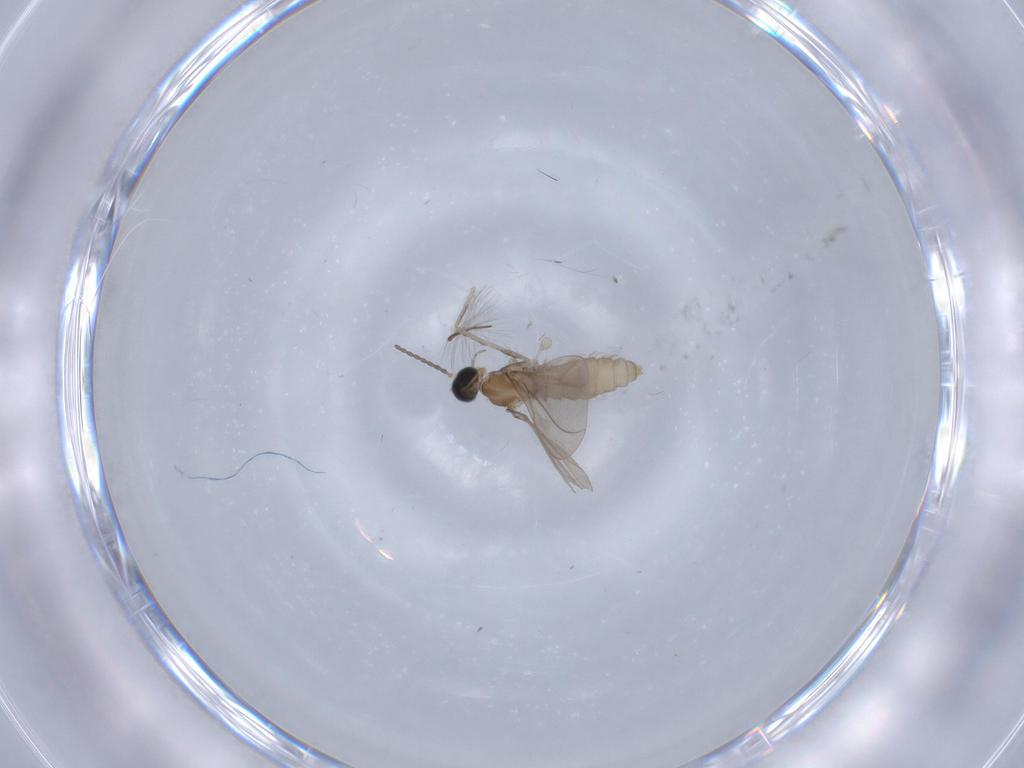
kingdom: Animalia
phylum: Arthropoda
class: Insecta
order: Diptera
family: Cecidomyiidae
